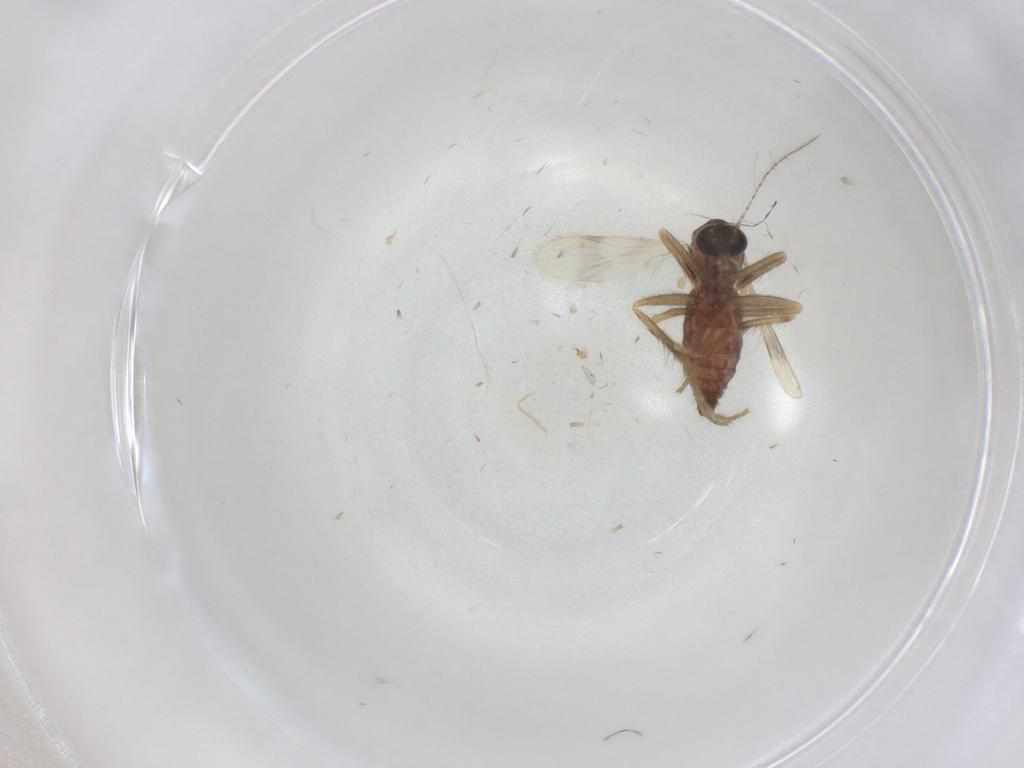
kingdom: Animalia
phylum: Arthropoda
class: Insecta
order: Diptera
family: Corethrellidae
